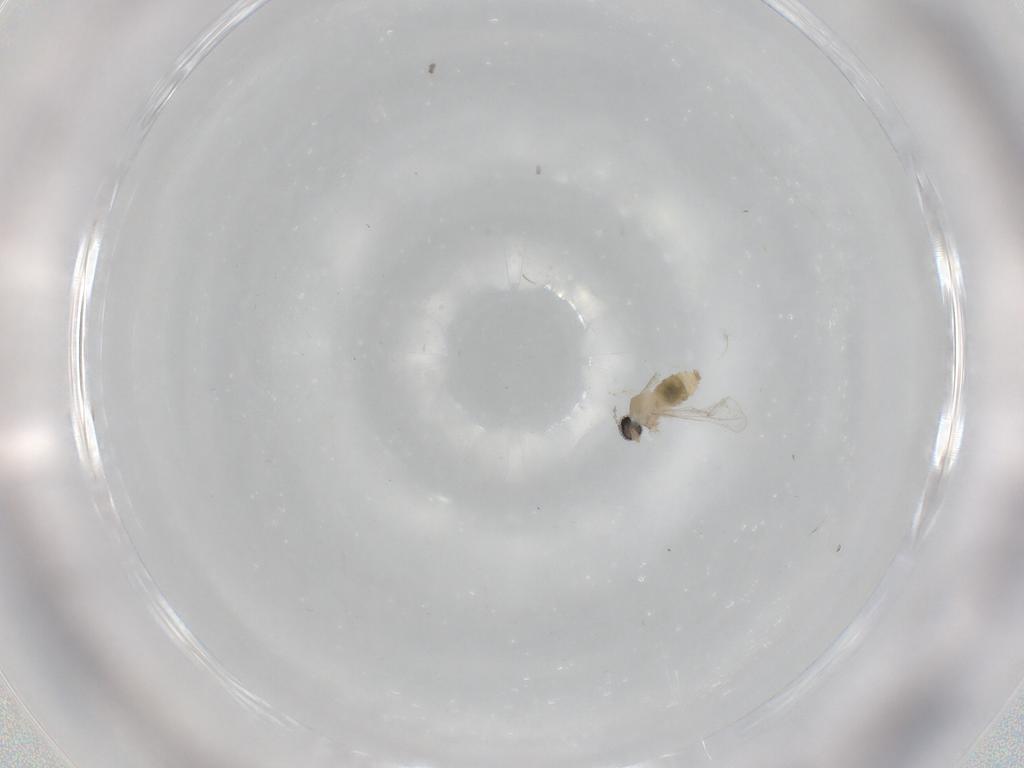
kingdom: Animalia
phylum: Arthropoda
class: Insecta
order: Diptera
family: Cecidomyiidae
